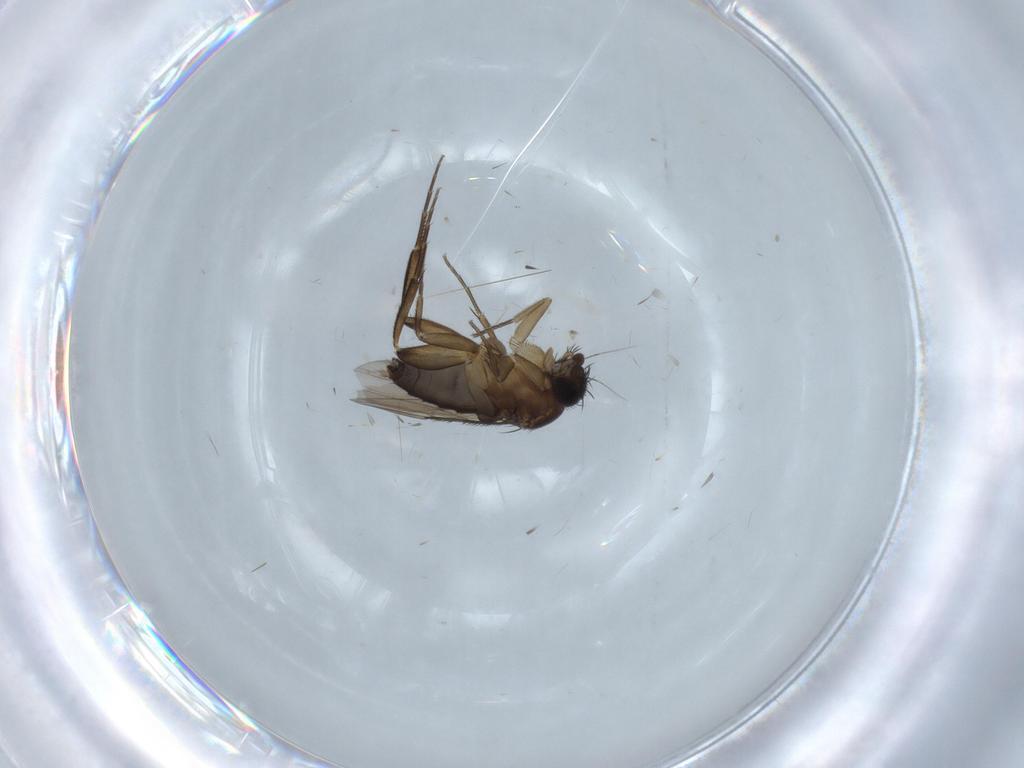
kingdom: Animalia
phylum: Arthropoda
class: Insecta
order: Diptera
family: Phoridae
